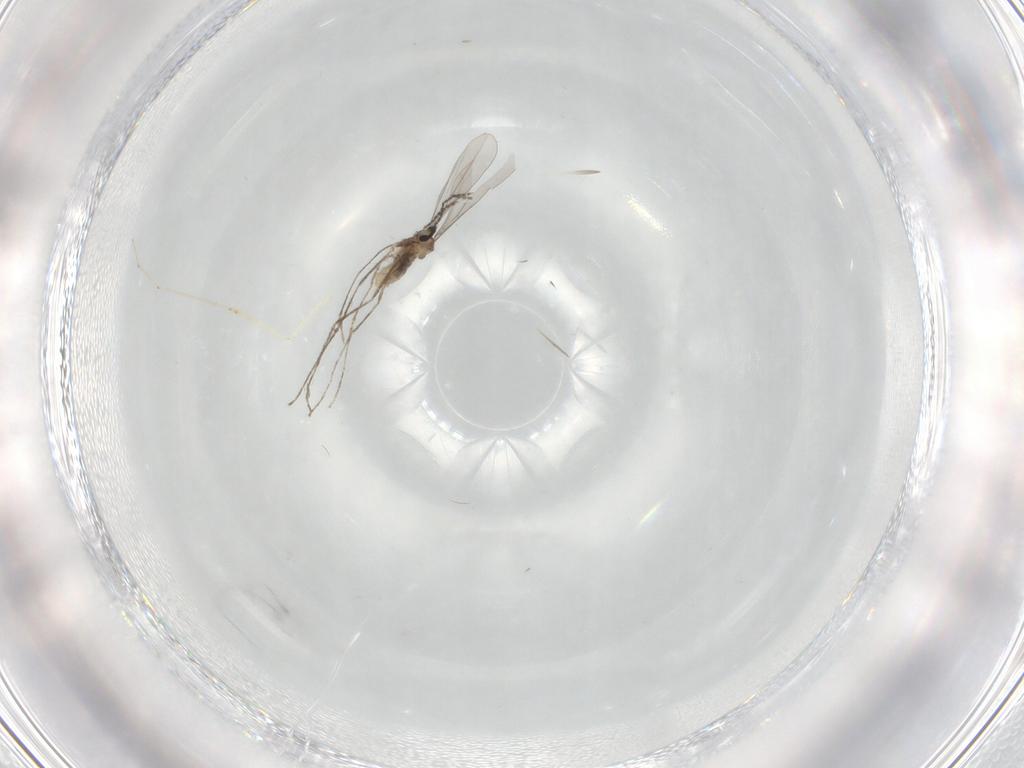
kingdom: Animalia
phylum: Arthropoda
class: Insecta
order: Diptera
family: Cecidomyiidae
